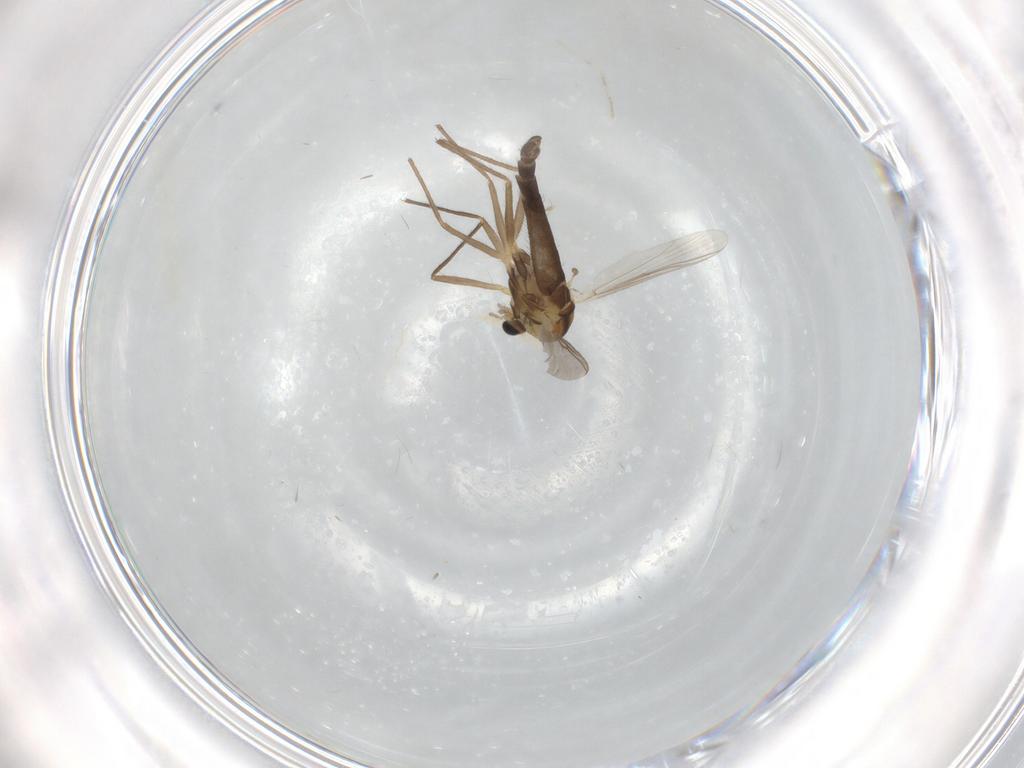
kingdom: Animalia
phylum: Arthropoda
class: Insecta
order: Diptera
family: Chironomidae
